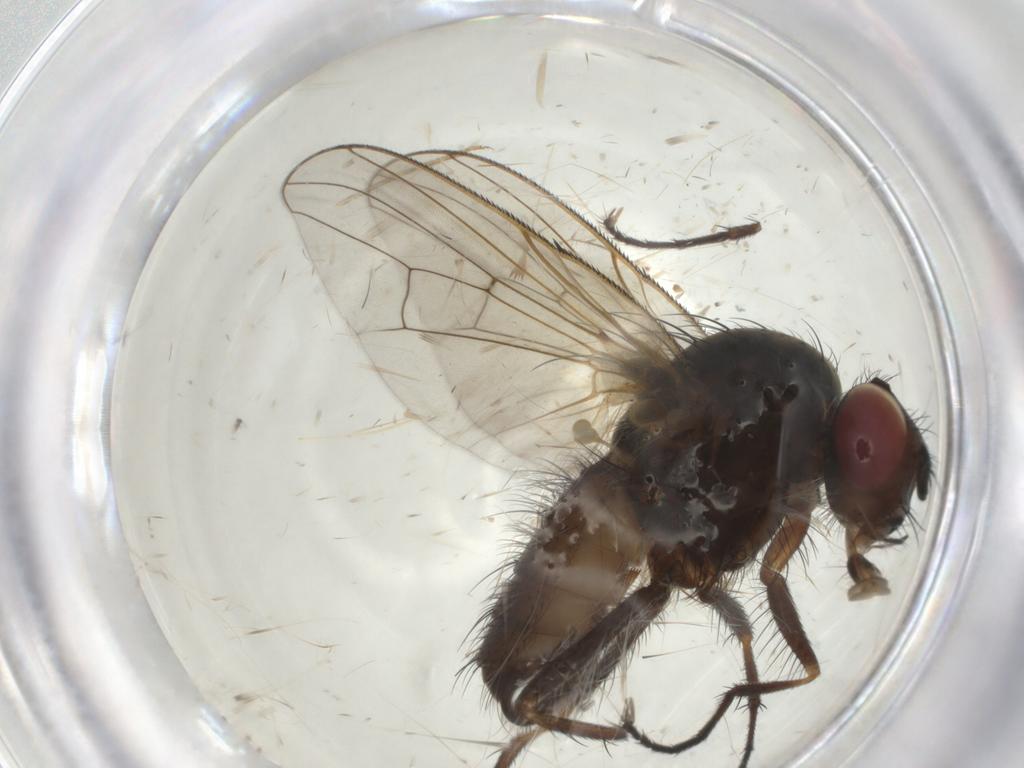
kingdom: Animalia
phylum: Arthropoda
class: Insecta
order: Diptera
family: Anthomyiidae
